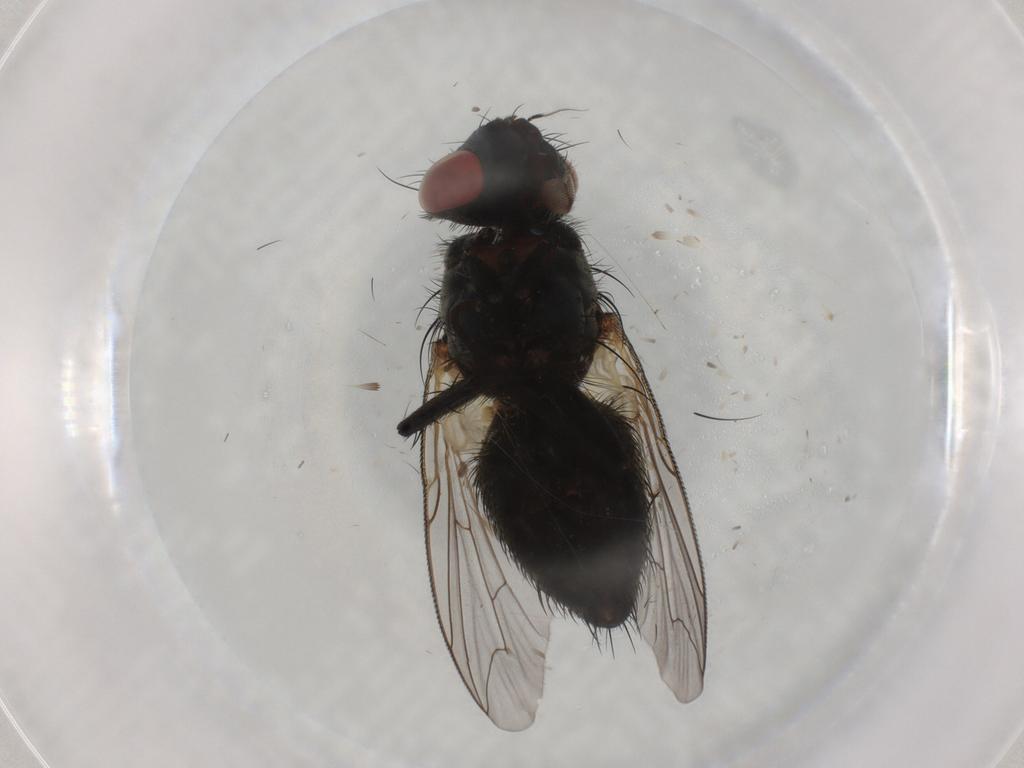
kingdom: Animalia
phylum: Arthropoda
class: Insecta
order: Diptera
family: Sarcophagidae
